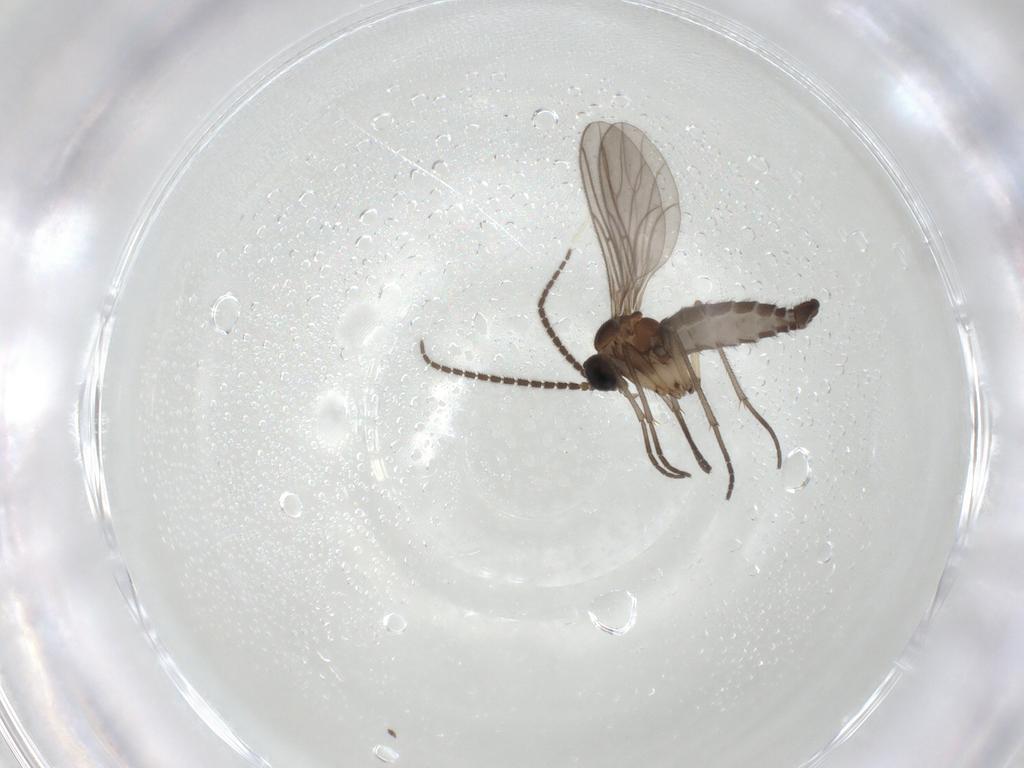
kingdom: Animalia
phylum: Arthropoda
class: Insecta
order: Diptera
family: Sciaridae
